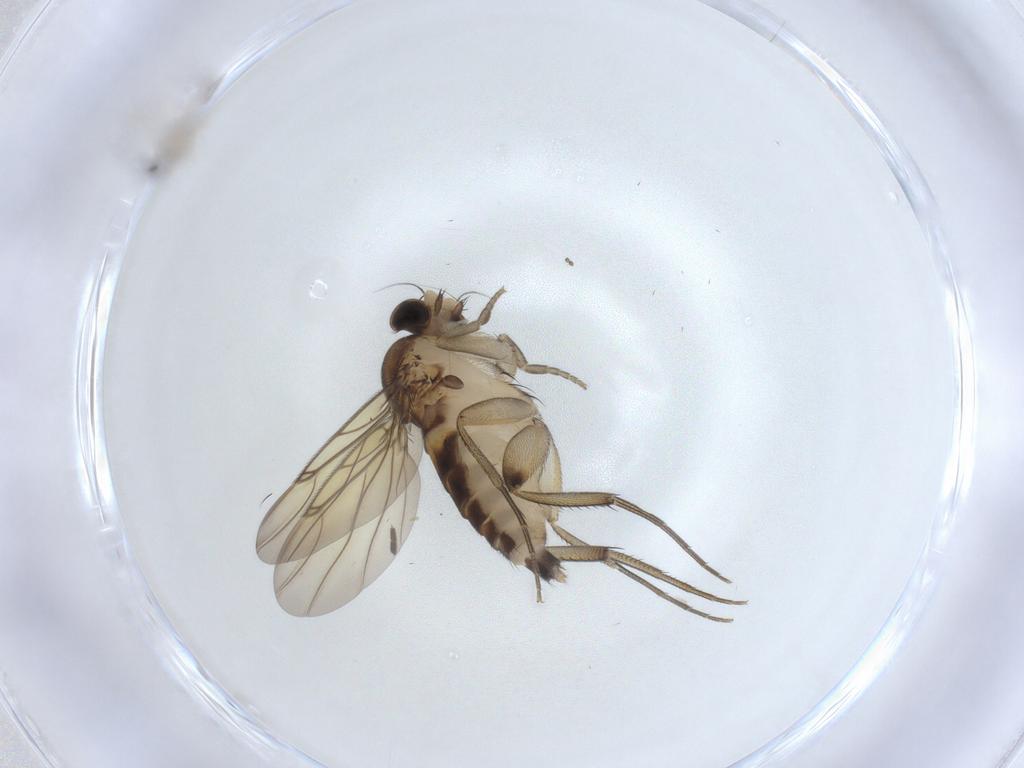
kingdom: Animalia
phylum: Arthropoda
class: Insecta
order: Diptera
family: Phoridae
